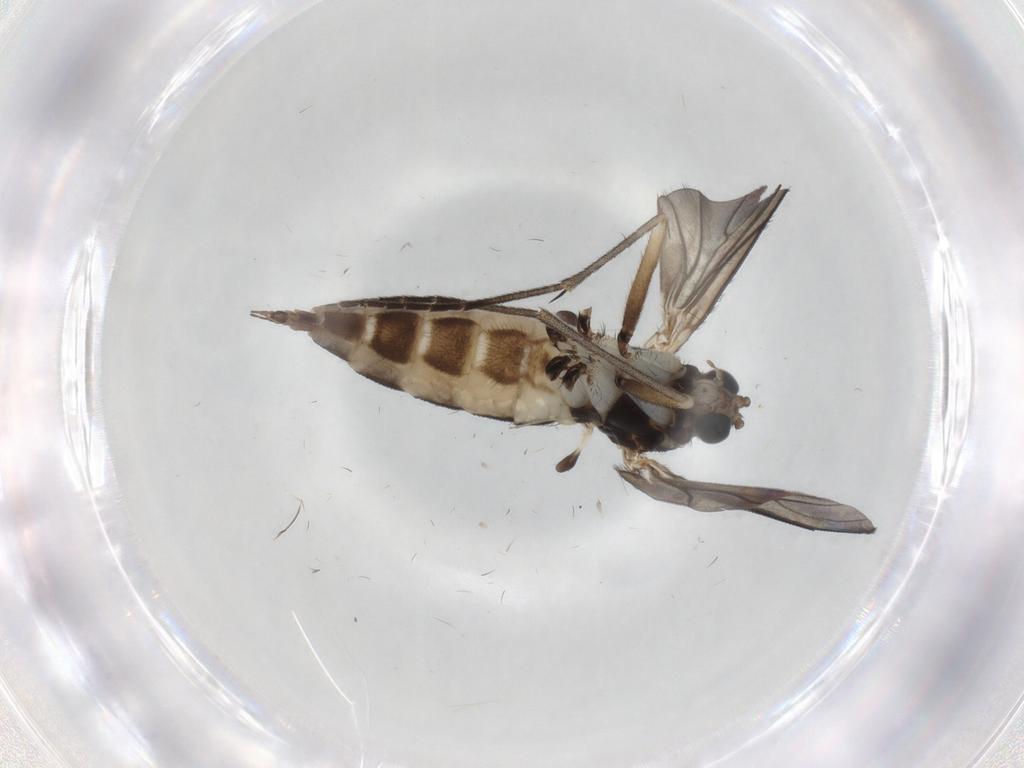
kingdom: Animalia
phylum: Arthropoda
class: Insecta
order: Diptera
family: Sciaridae
